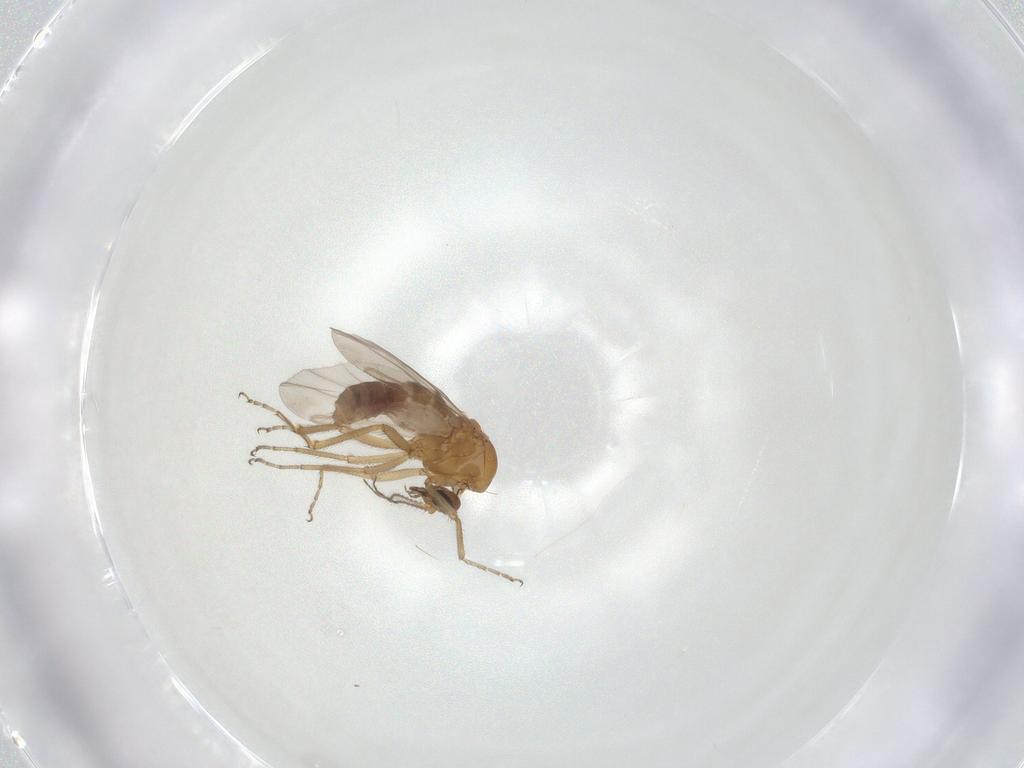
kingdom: Animalia
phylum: Arthropoda
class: Insecta
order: Diptera
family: Ceratopogonidae
